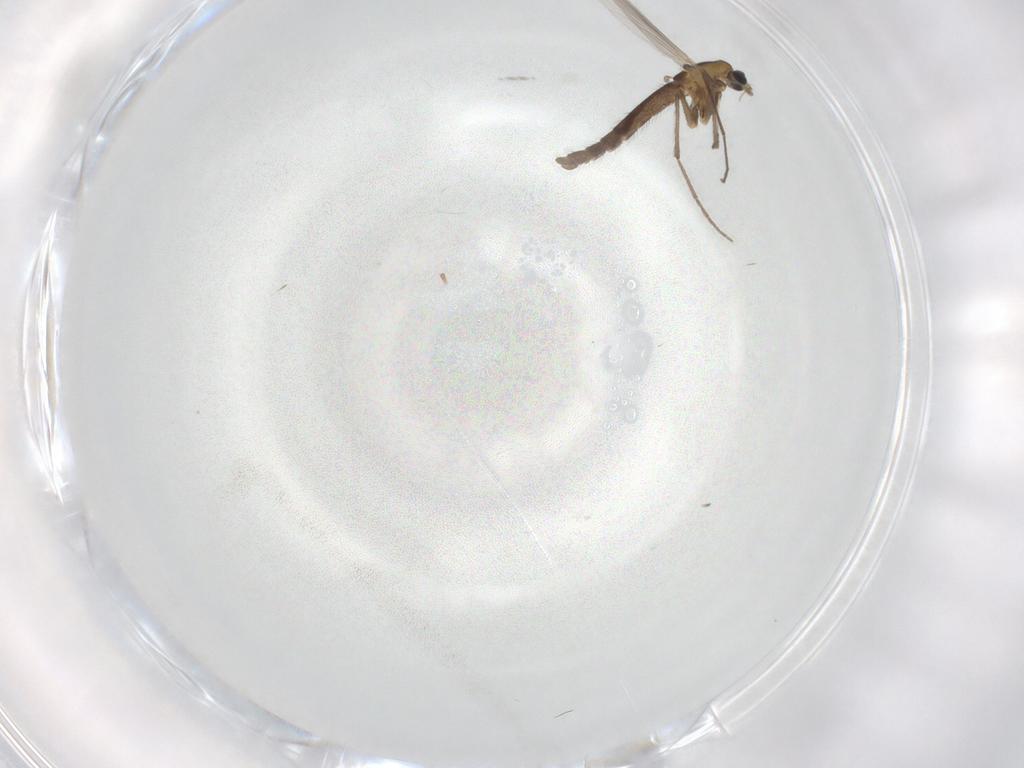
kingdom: Animalia
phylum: Arthropoda
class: Insecta
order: Diptera
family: Chironomidae
